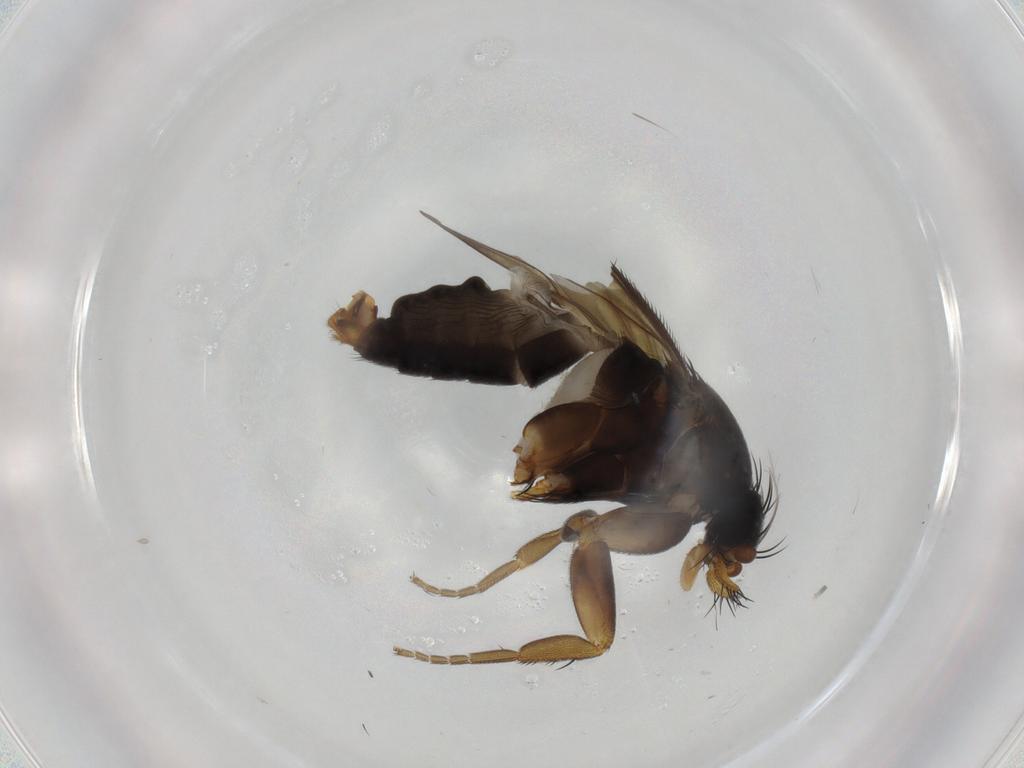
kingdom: Animalia
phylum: Arthropoda
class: Insecta
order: Diptera
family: Phoridae
